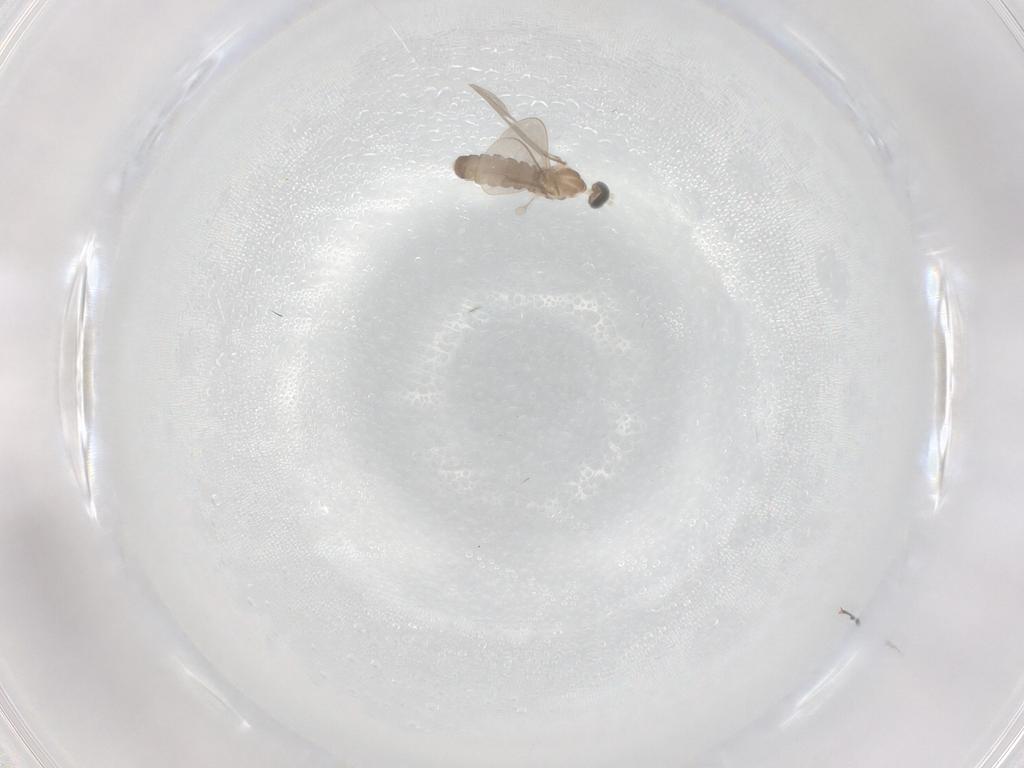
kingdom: Animalia
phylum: Arthropoda
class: Insecta
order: Diptera
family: Cecidomyiidae
